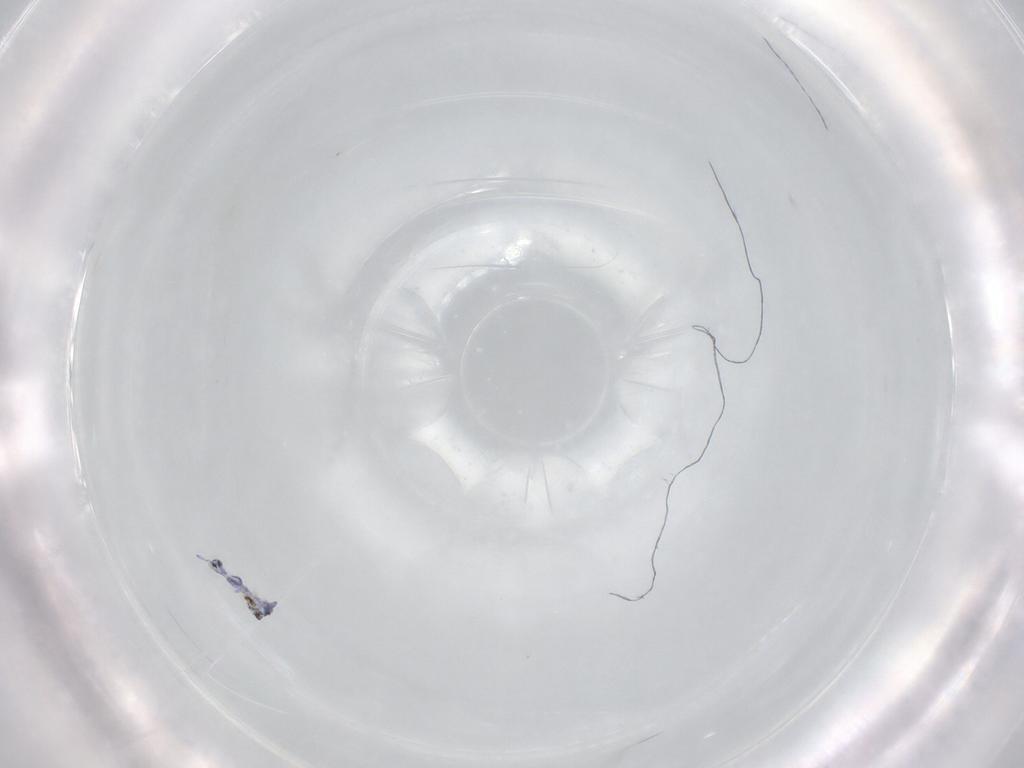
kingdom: Animalia
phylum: Arthropoda
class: Collembola
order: Entomobryomorpha
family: Entomobryidae
